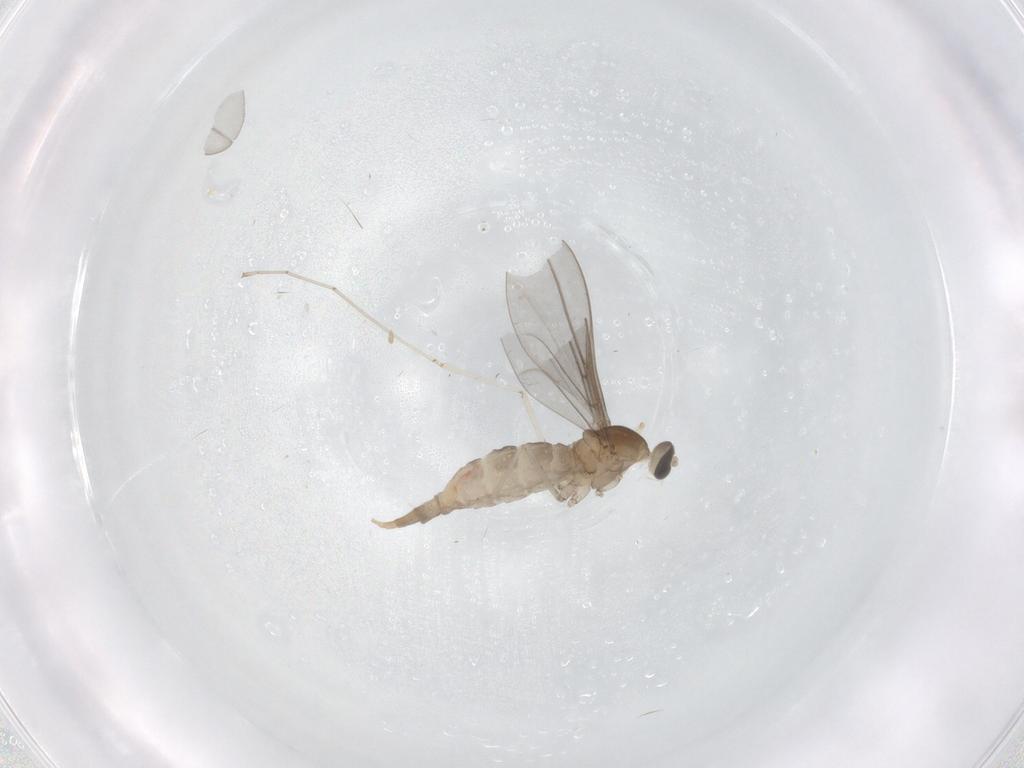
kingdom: Animalia
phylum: Arthropoda
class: Insecta
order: Diptera
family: Cecidomyiidae
